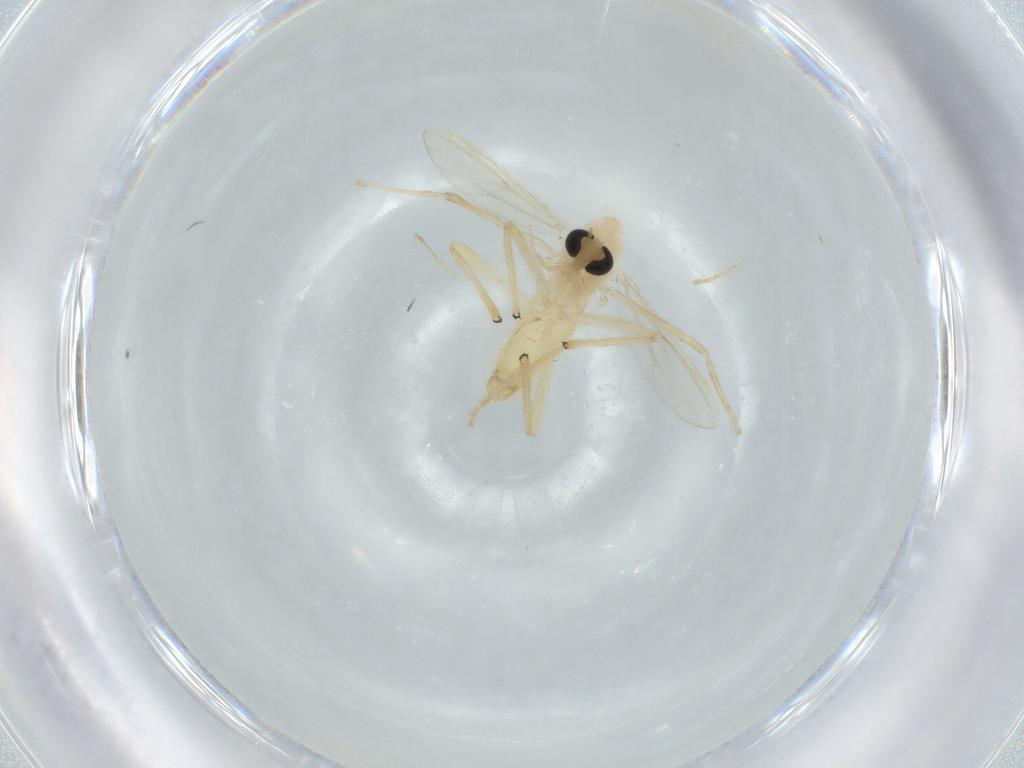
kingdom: Animalia
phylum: Arthropoda
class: Insecta
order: Diptera
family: Chironomidae
